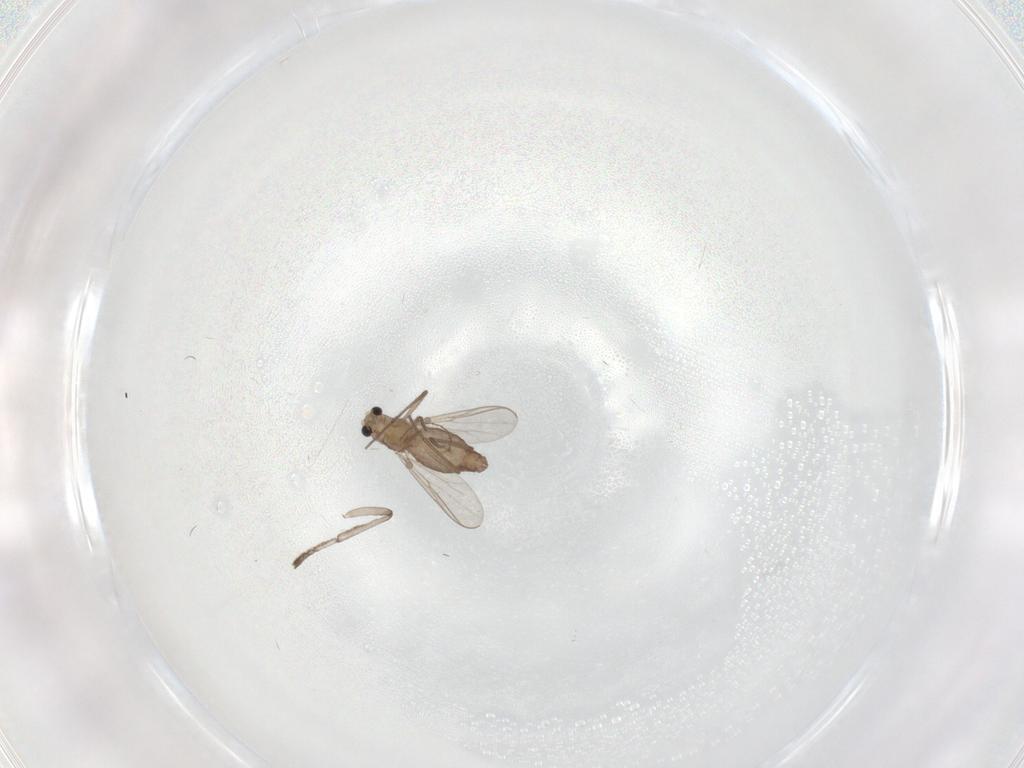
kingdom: Animalia
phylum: Arthropoda
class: Insecta
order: Diptera
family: Chironomidae
